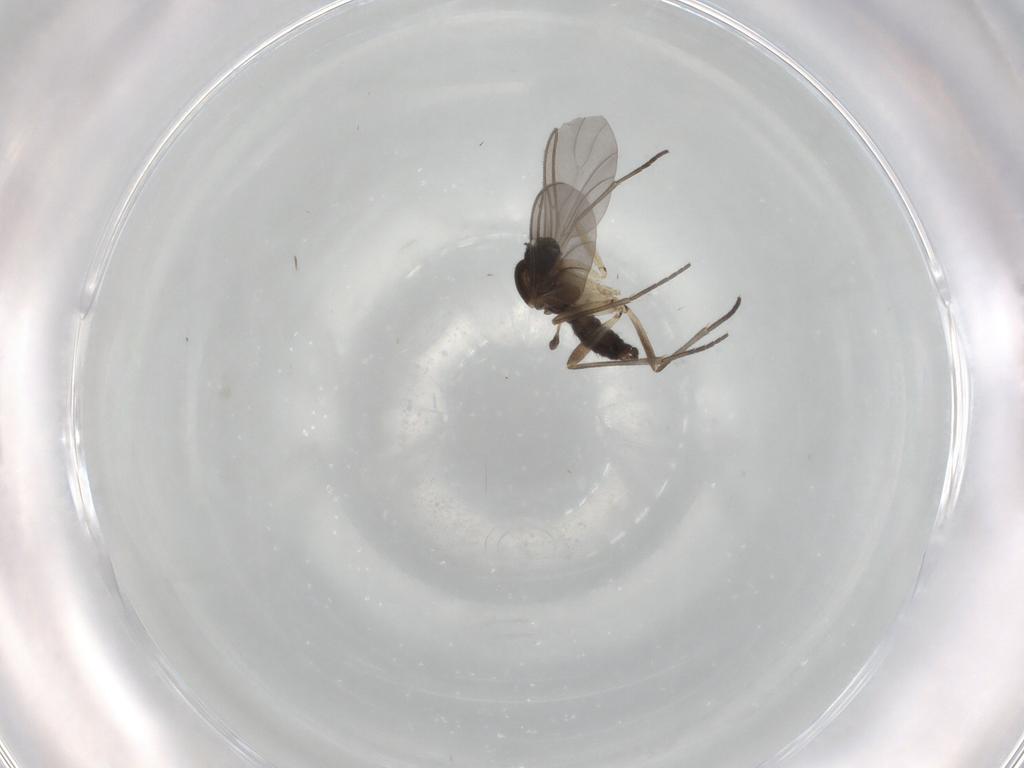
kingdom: Animalia
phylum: Arthropoda
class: Insecta
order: Diptera
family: Sciaridae
